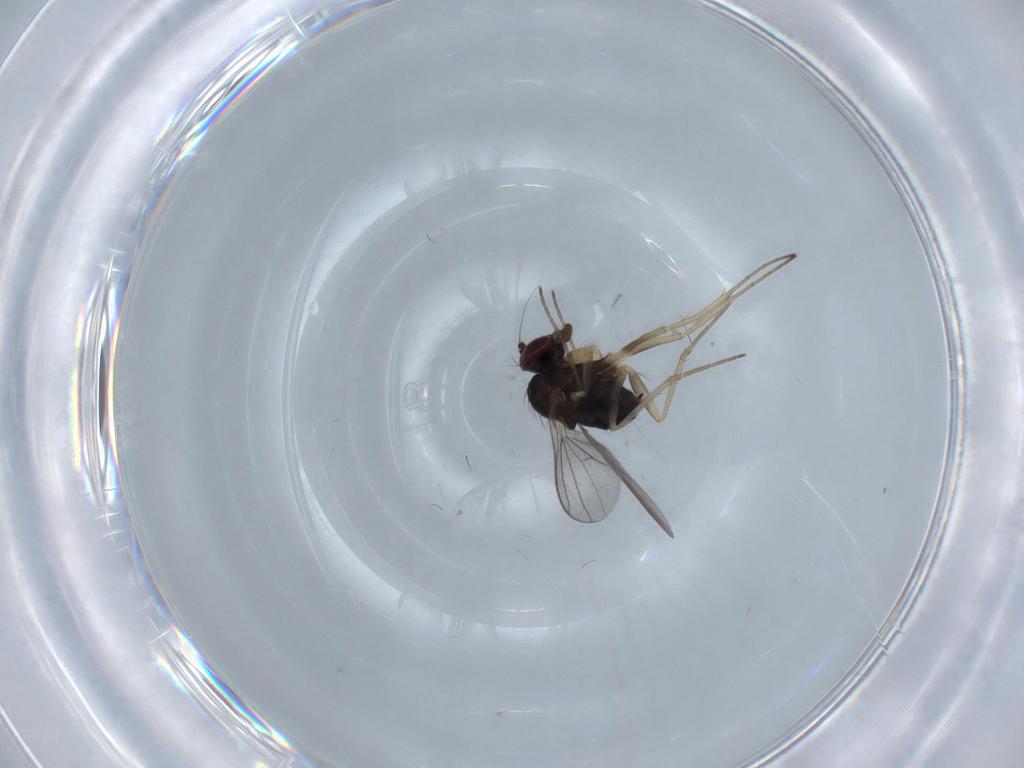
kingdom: Animalia
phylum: Arthropoda
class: Insecta
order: Diptera
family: Dolichopodidae
